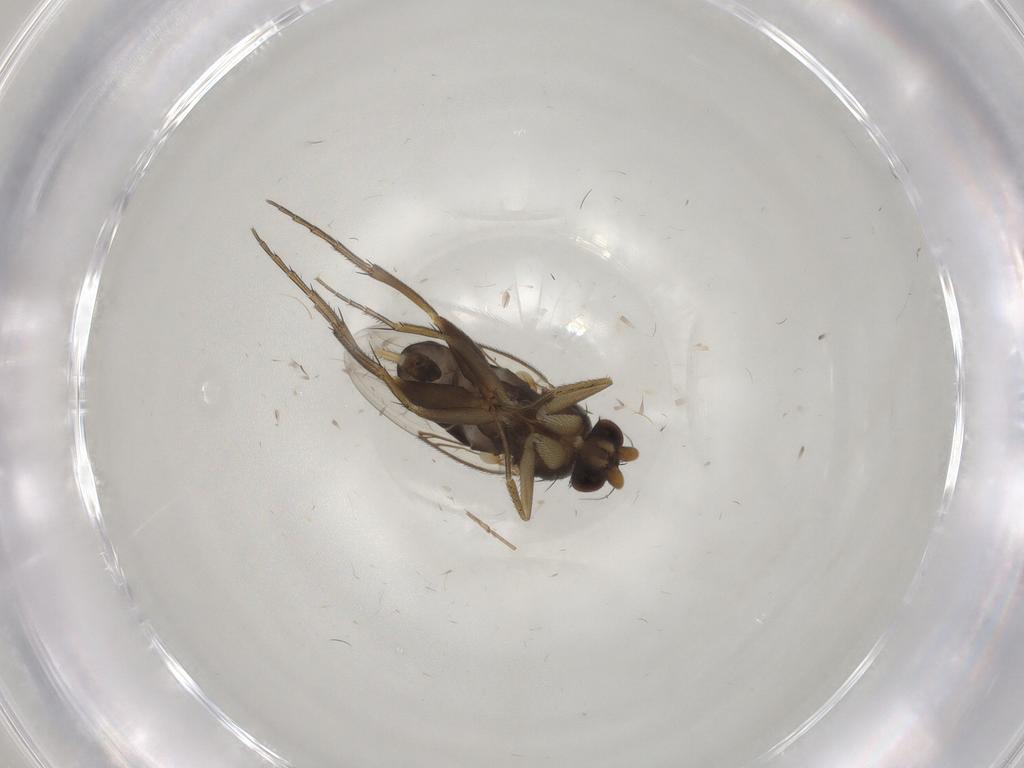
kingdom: Animalia
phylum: Arthropoda
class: Insecta
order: Diptera
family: Phoridae
